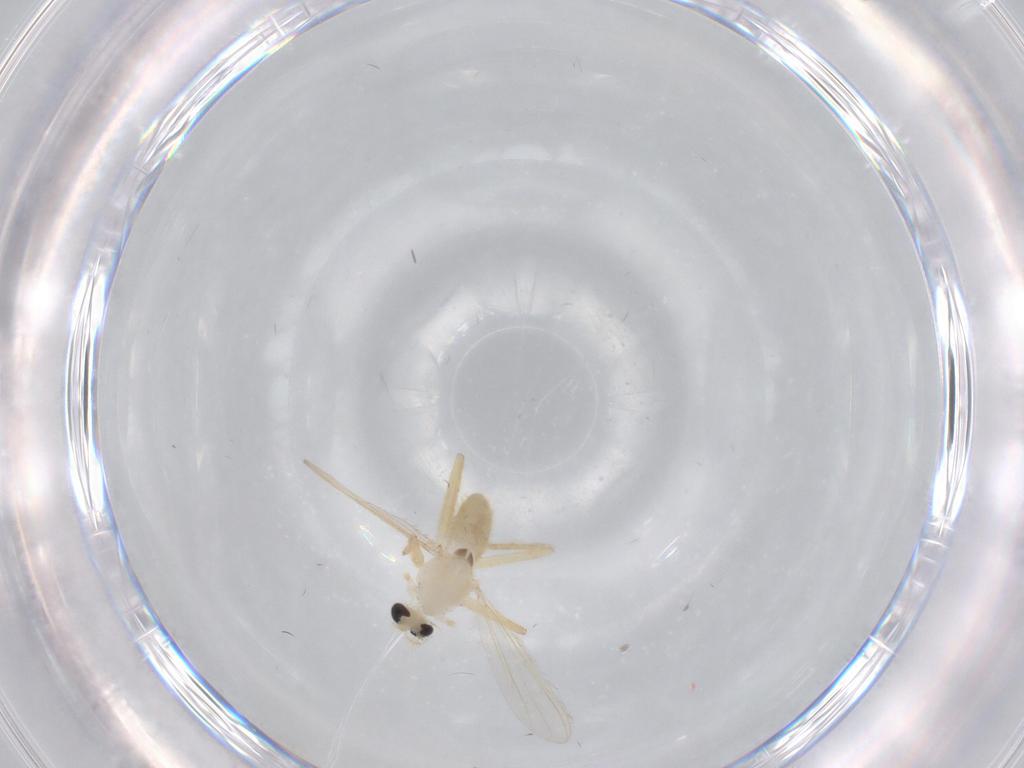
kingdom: Animalia
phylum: Arthropoda
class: Insecta
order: Diptera
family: Chironomidae
